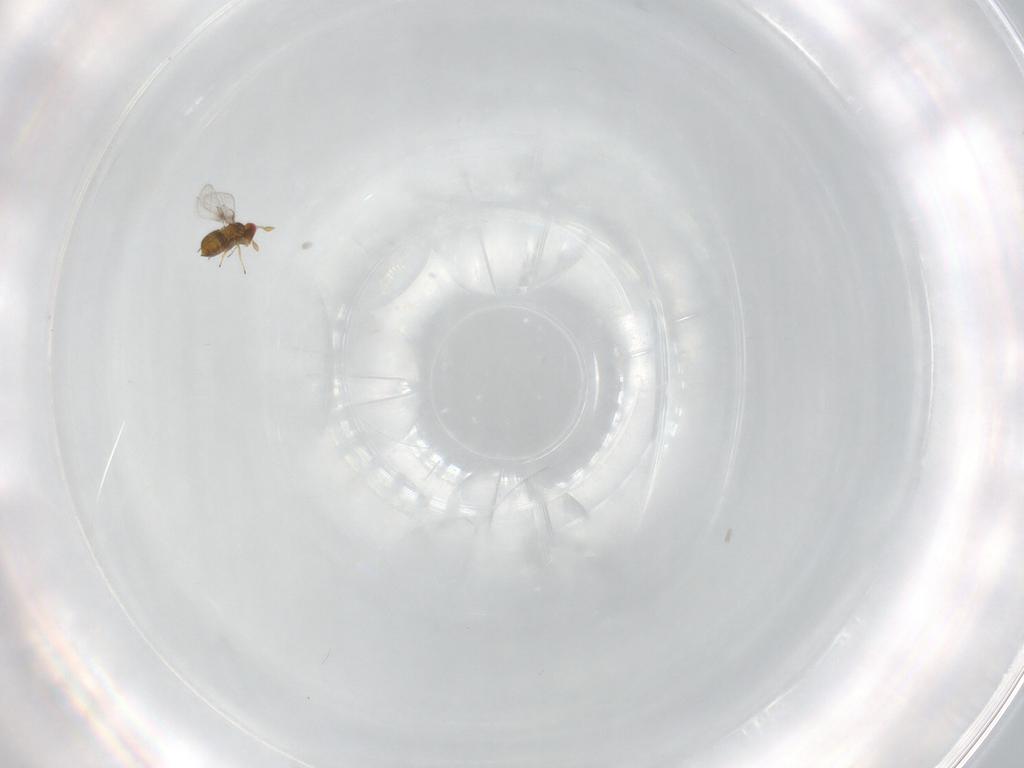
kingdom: Animalia
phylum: Arthropoda
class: Insecta
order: Hymenoptera
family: Trichogrammatidae
